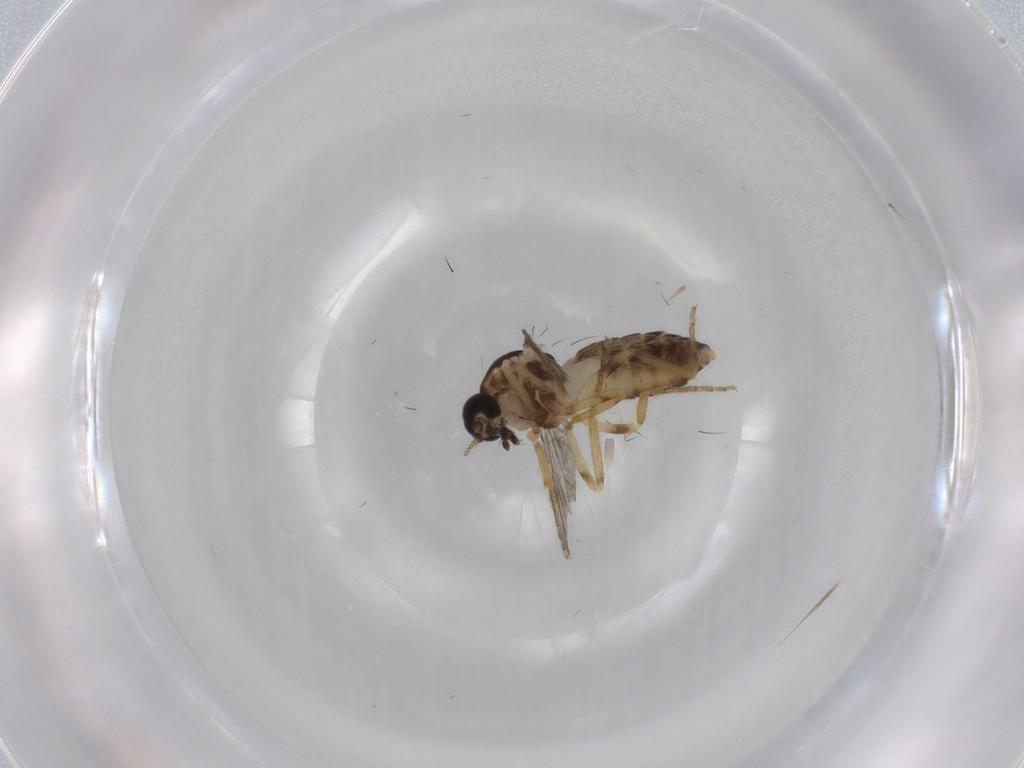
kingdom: Animalia
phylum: Arthropoda
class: Insecta
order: Diptera
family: Ceratopogonidae
